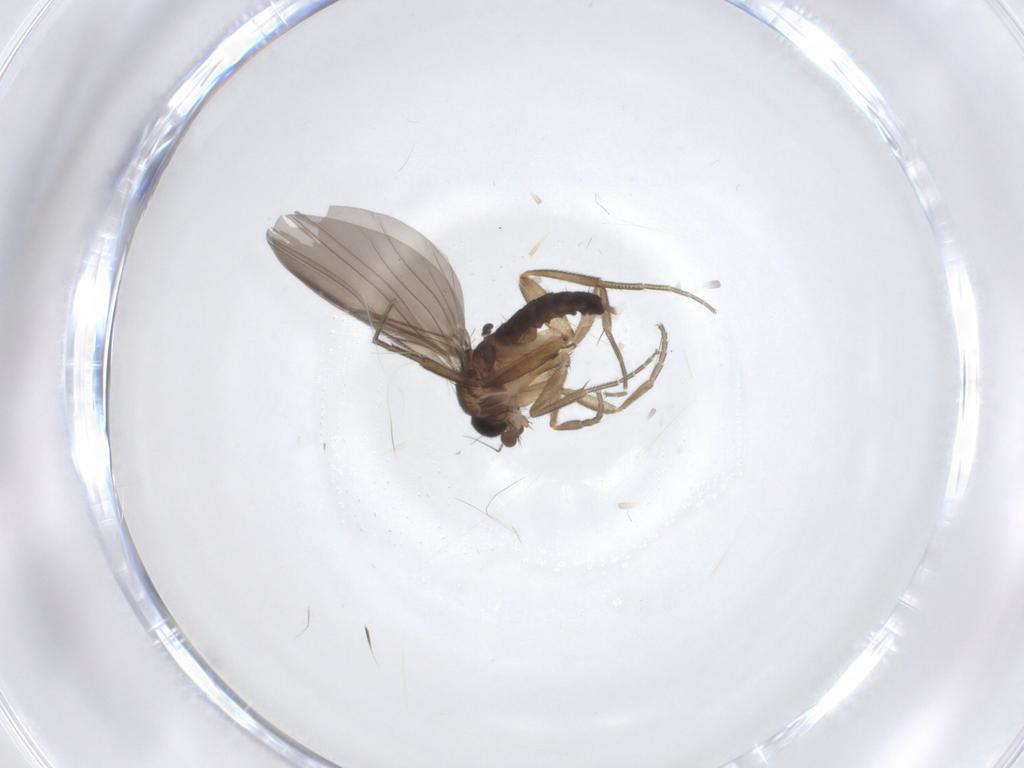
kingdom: Animalia
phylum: Arthropoda
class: Insecta
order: Diptera
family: Phoridae
